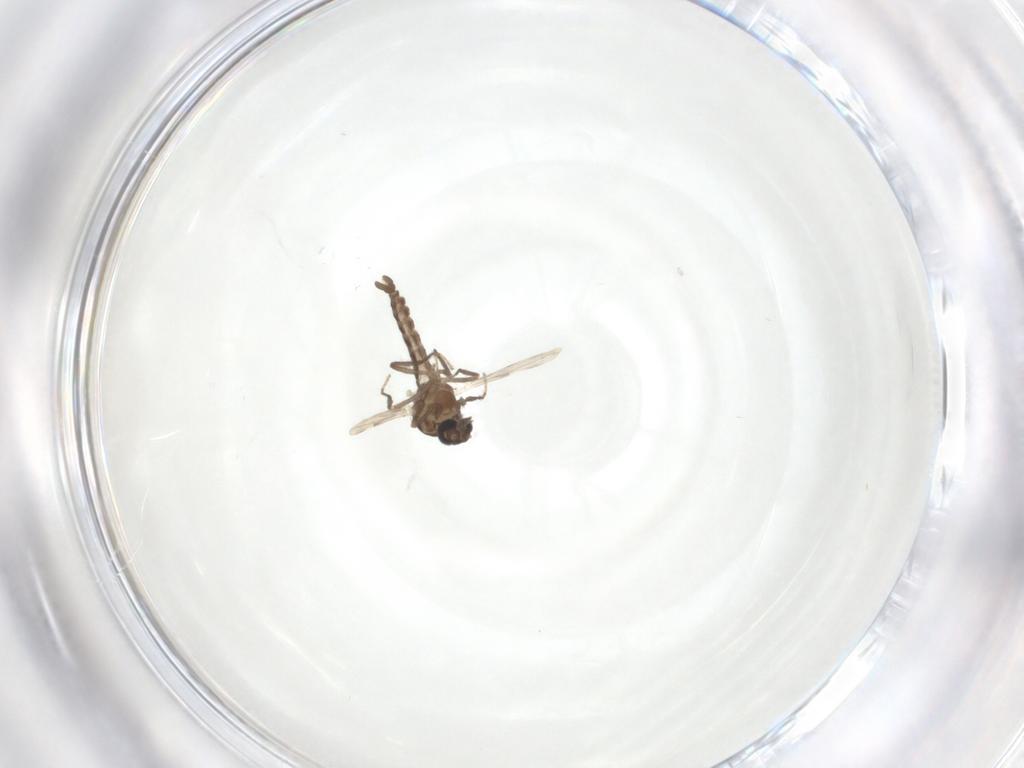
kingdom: Animalia
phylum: Arthropoda
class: Insecta
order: Diptera
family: Ceratopogonidae
